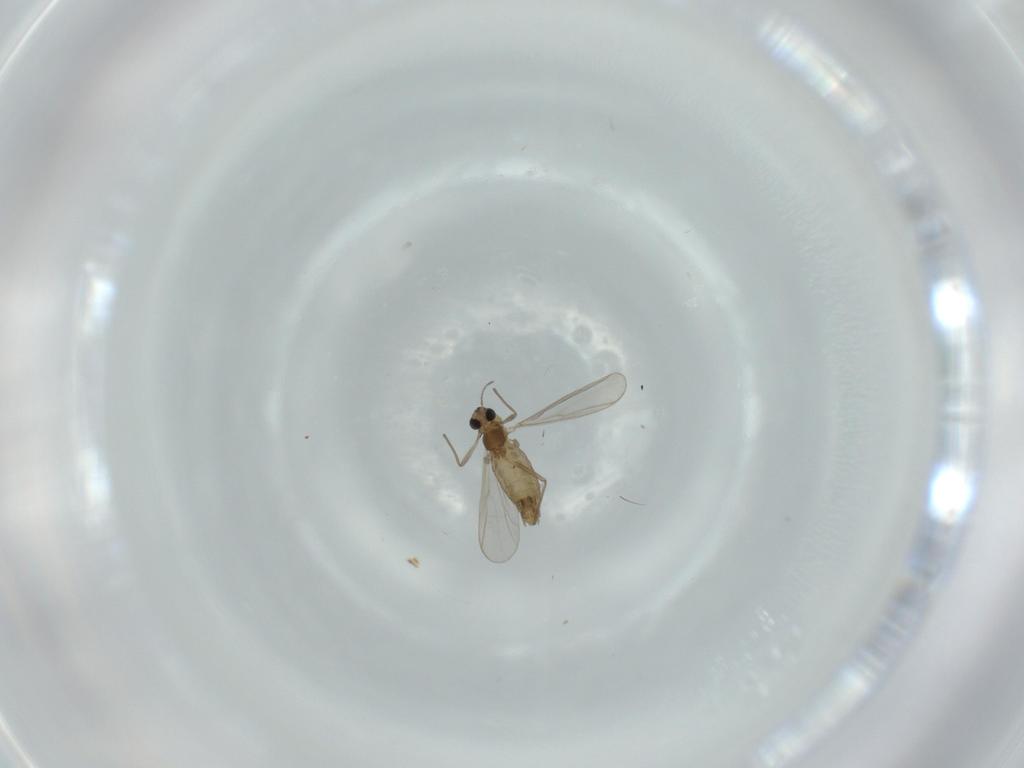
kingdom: Animalia
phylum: Arthropoda
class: Insecta
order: Diptera
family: Chironomidae
